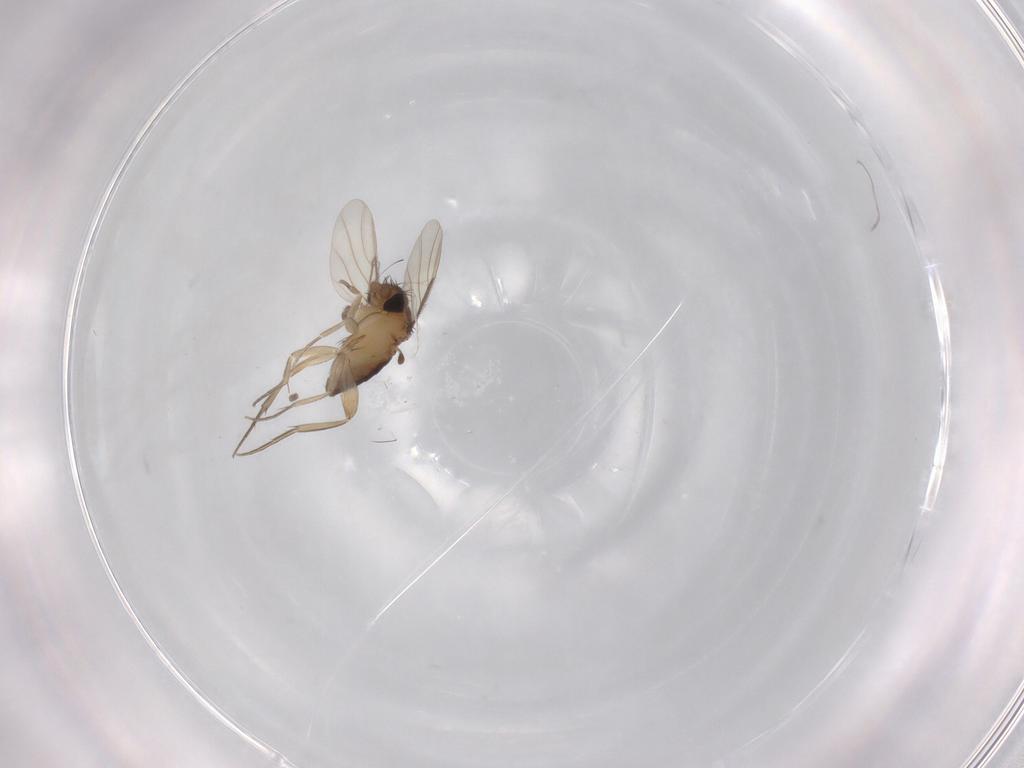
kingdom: Animalia
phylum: Arthropoda
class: Insecta
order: Diptera
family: Phoridae
